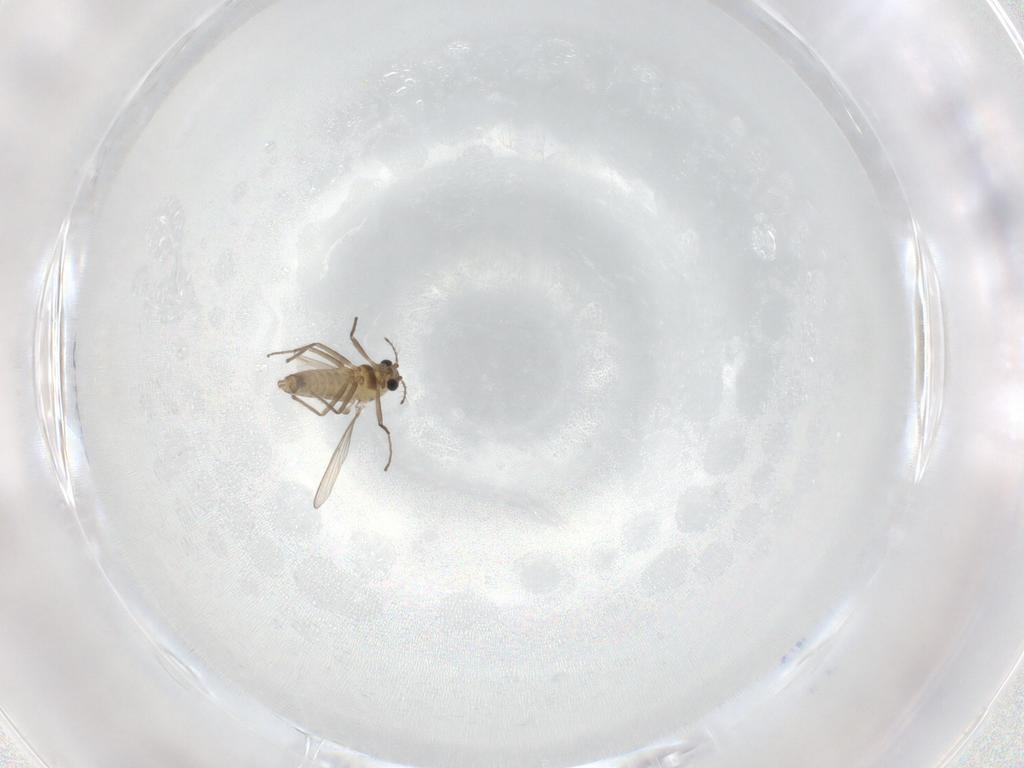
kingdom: Animalia
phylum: Arthropoda
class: Insecta
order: Diptera
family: Chironomidae
